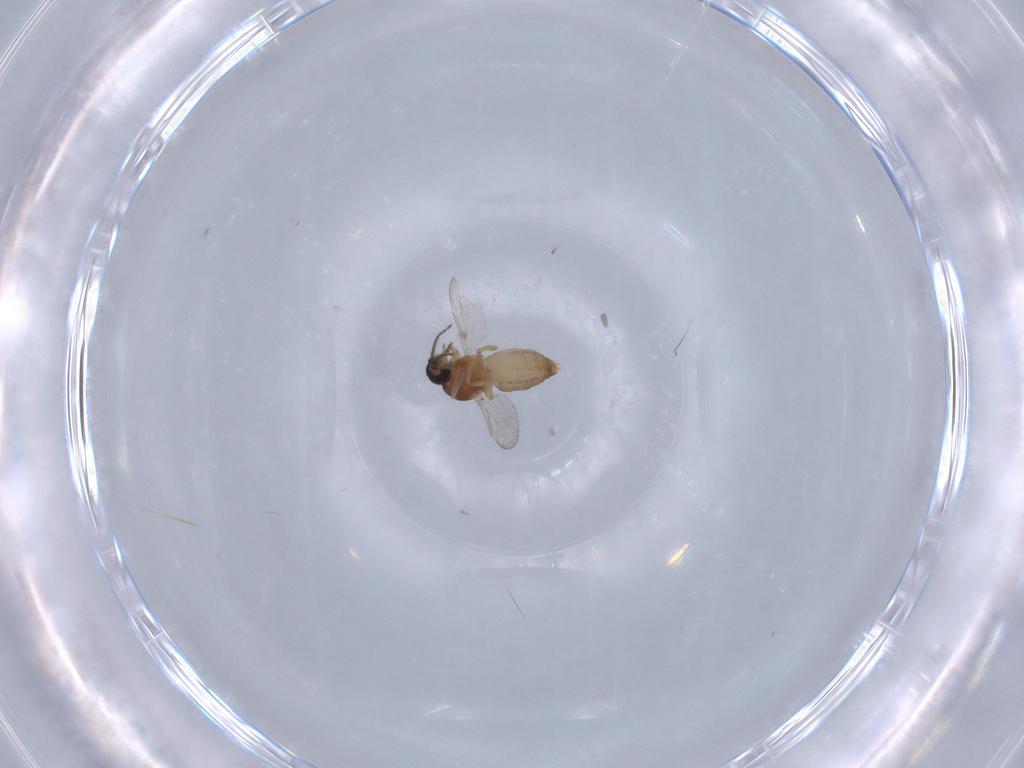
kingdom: Animalia
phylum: Arthropoda
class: Insecta
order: Diptera
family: Ceratopogonidae
